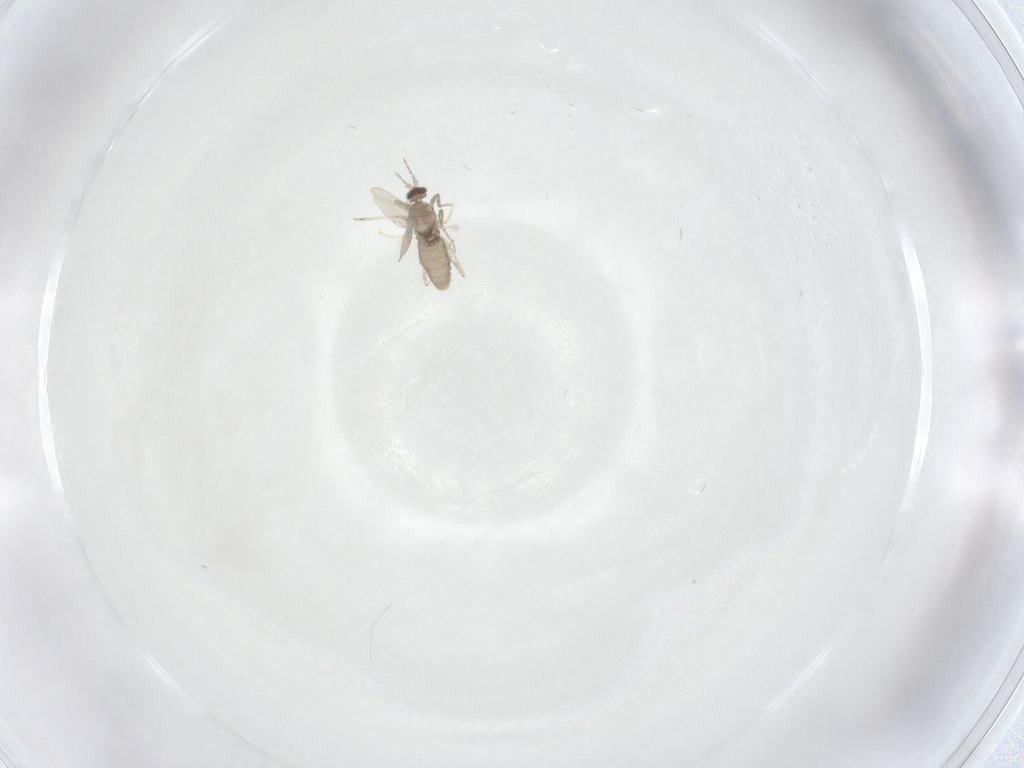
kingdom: Animalia
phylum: Arthropoda
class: Insecta
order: Diptera
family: Cecidomyiidae
